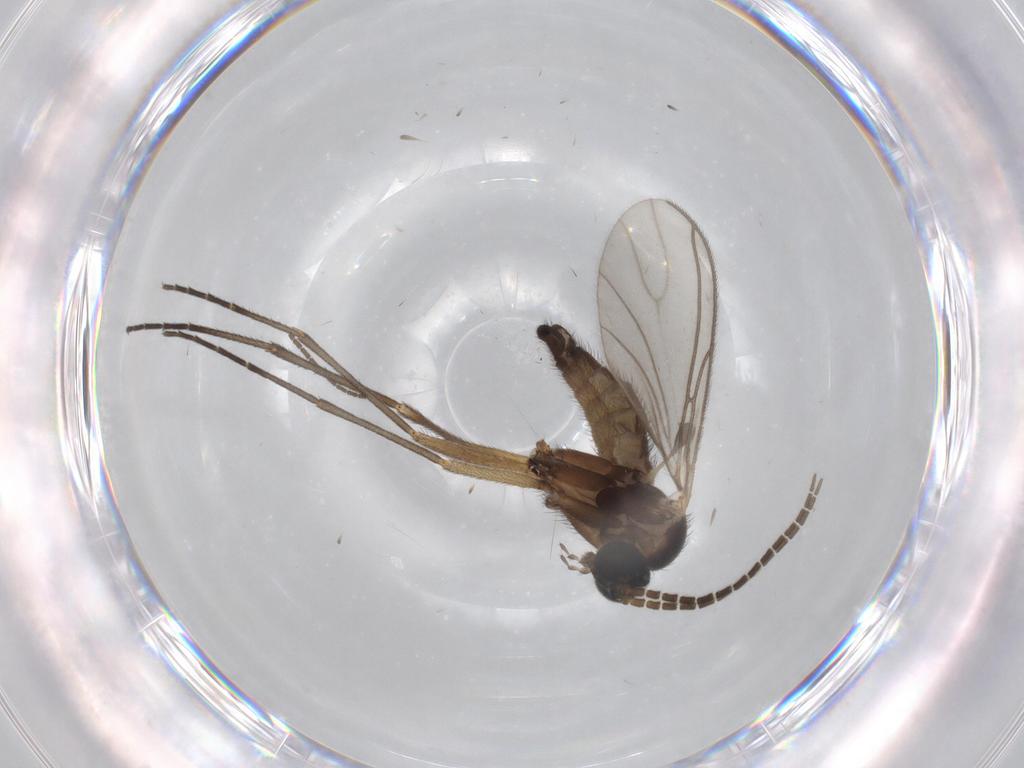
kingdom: Animalia
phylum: Arthropoda
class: Insecta
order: Diptera
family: Sciaridae
